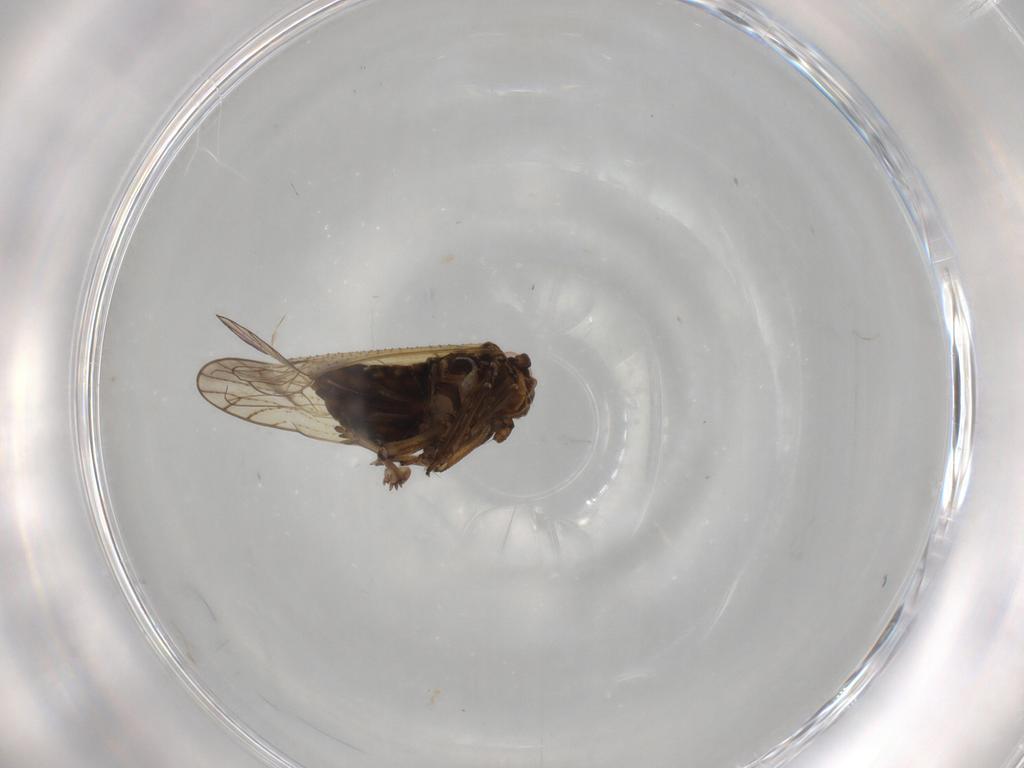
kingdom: Animalia
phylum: Arthropoda
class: Insecta
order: Hemiptera
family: Delphacidae
